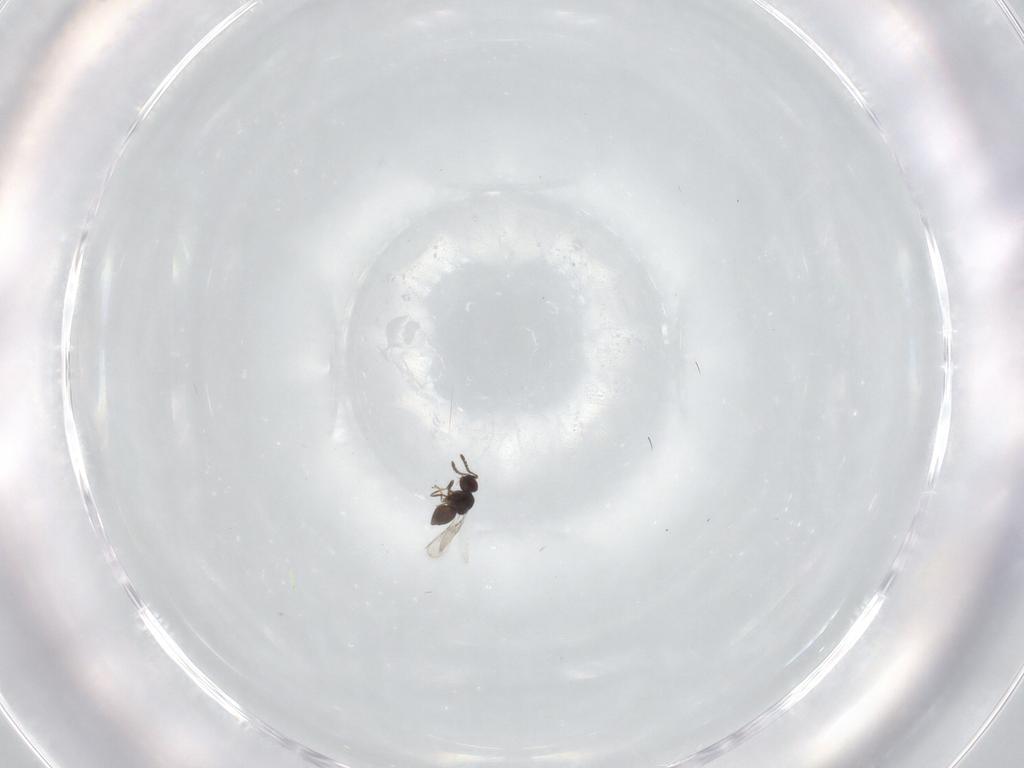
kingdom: Animalia
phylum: Arthropoda
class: Insecta
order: Hymenoptera
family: Ceraphronidae
